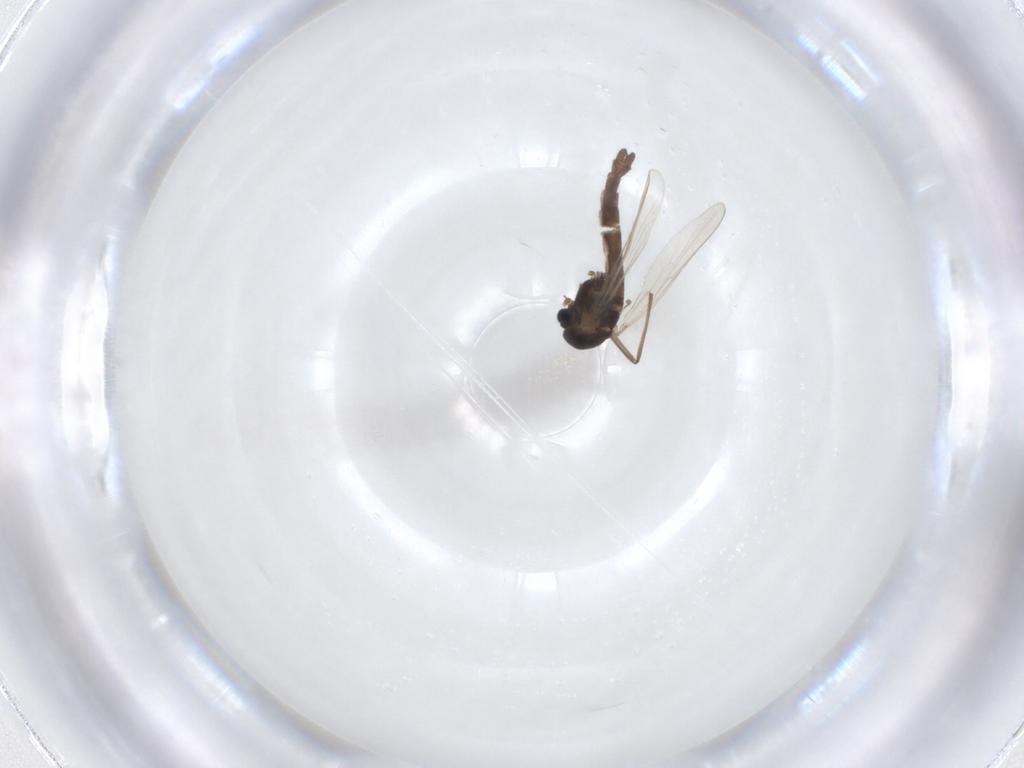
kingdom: Animalia
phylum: Arthropoda
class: Insecta
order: Diptera
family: Chironomidae
